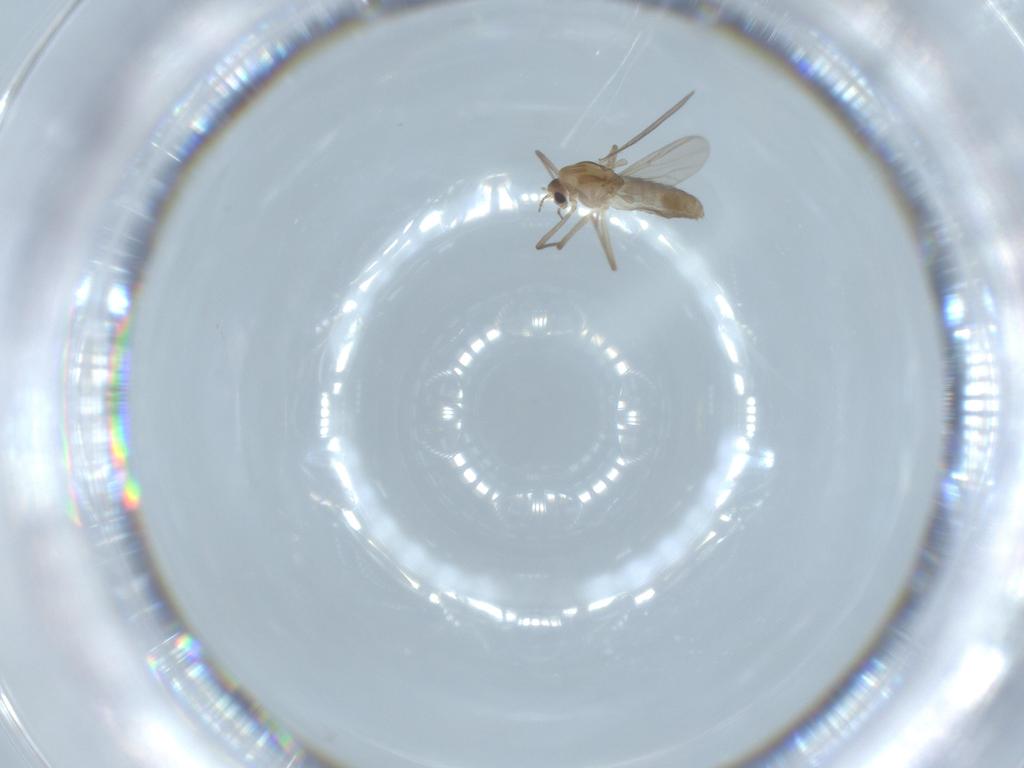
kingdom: Animalia
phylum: Arthropoda
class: Insecta
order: Diptera
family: Chironomidae
